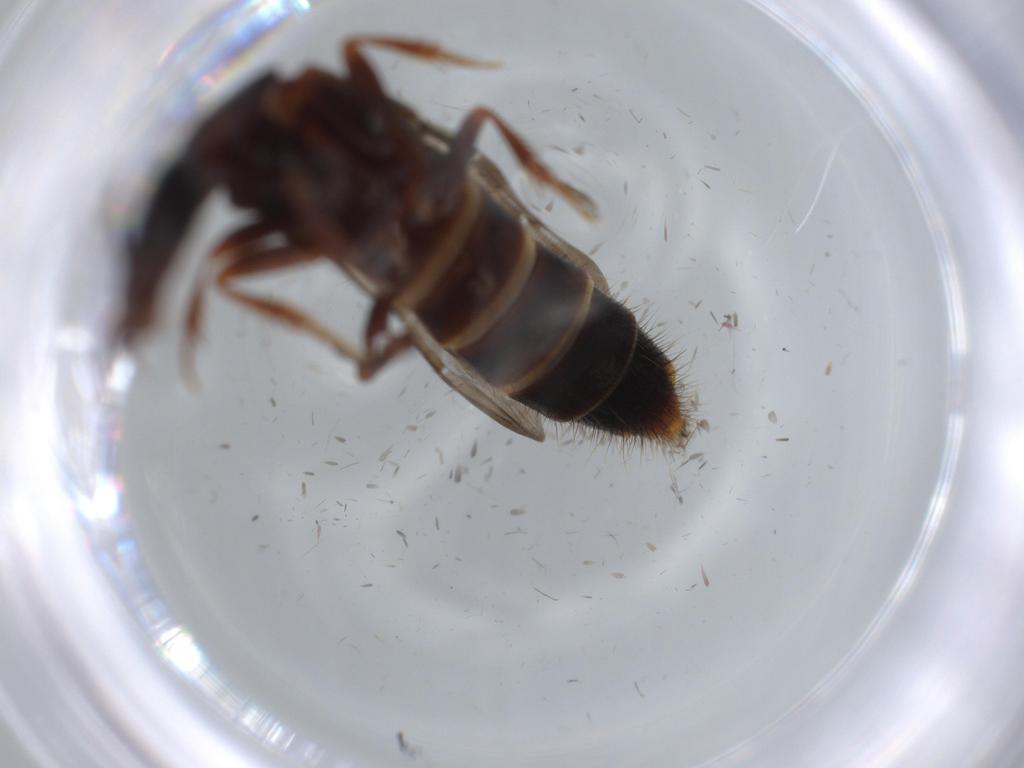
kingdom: Animalia
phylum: Arthropoda
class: Insecta
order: Coleoptera
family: Staphylinidae
